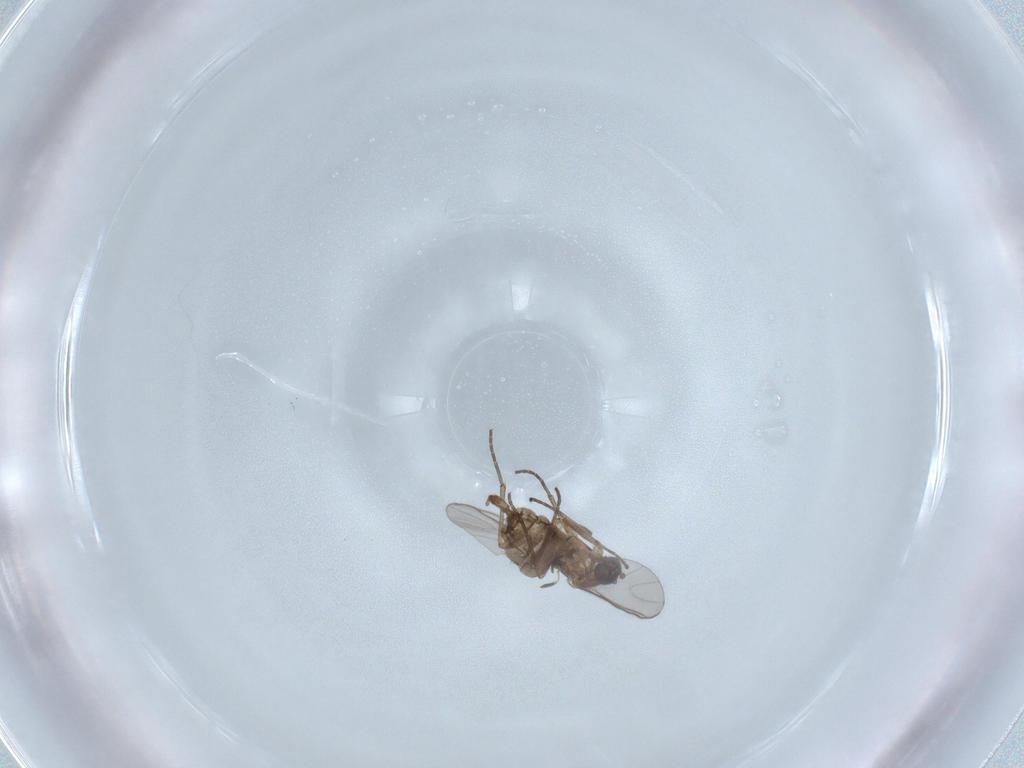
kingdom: Animalia
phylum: Arthropoda
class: Insecta
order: Diptera
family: Sciaridae
